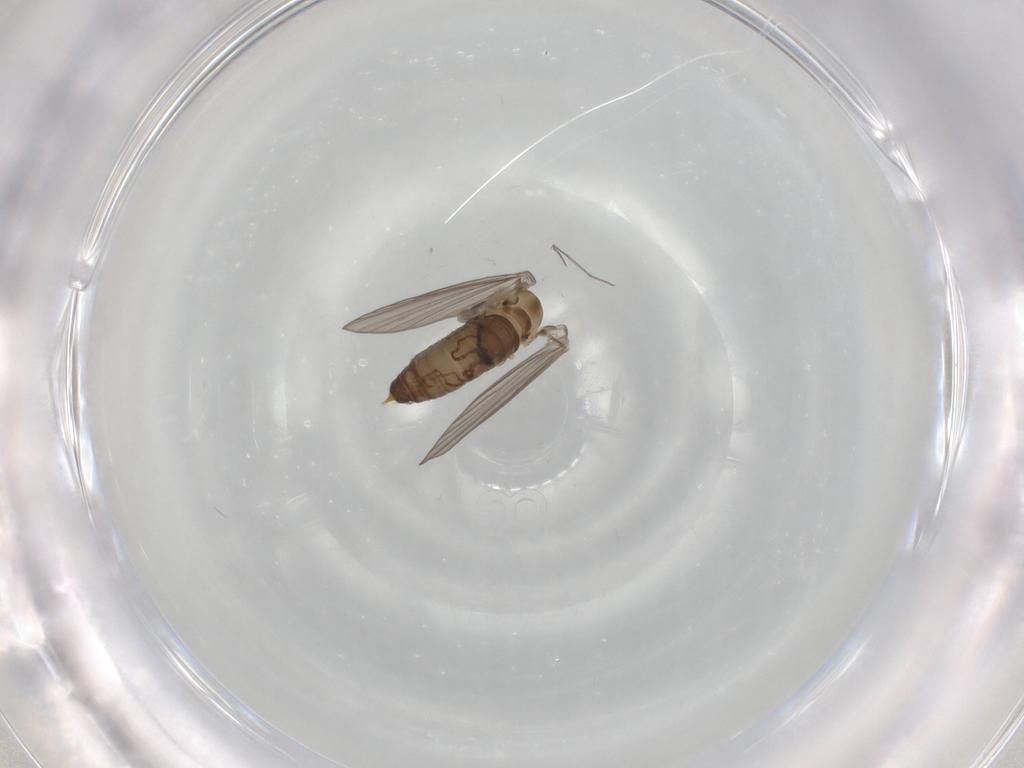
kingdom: Animalia
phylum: Arthropoda
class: Insecta
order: Diptera
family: Psychodidae
